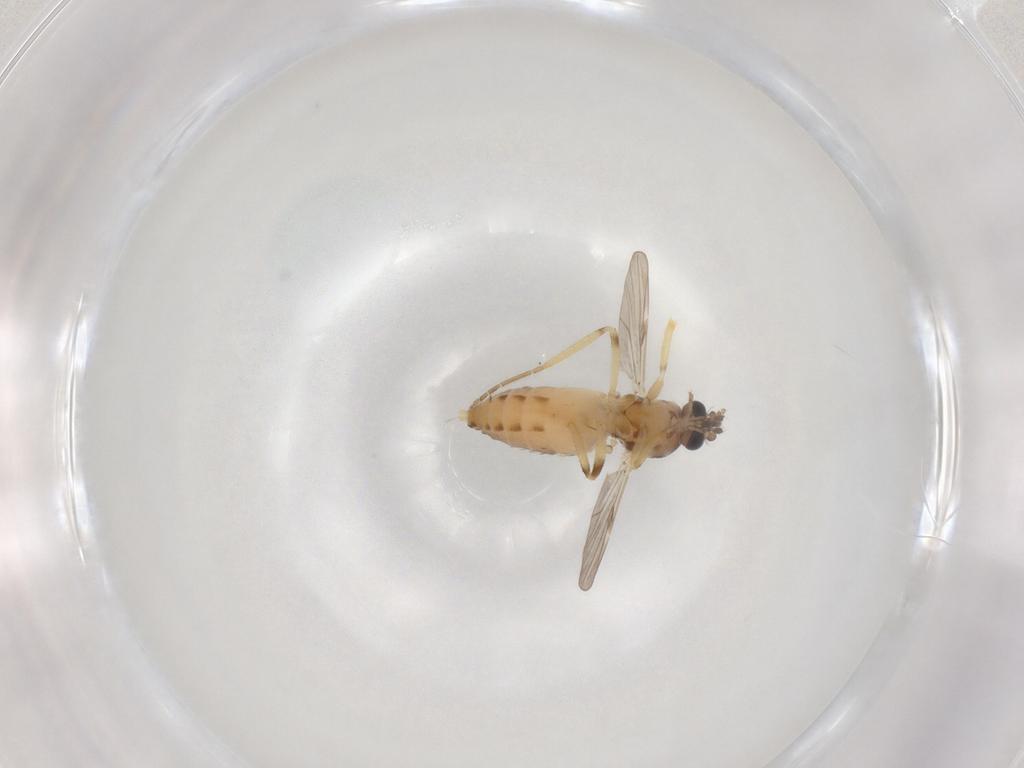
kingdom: Animalia
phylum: Arthropoda
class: Insecta
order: Diptera
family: Ceratopogonidae
